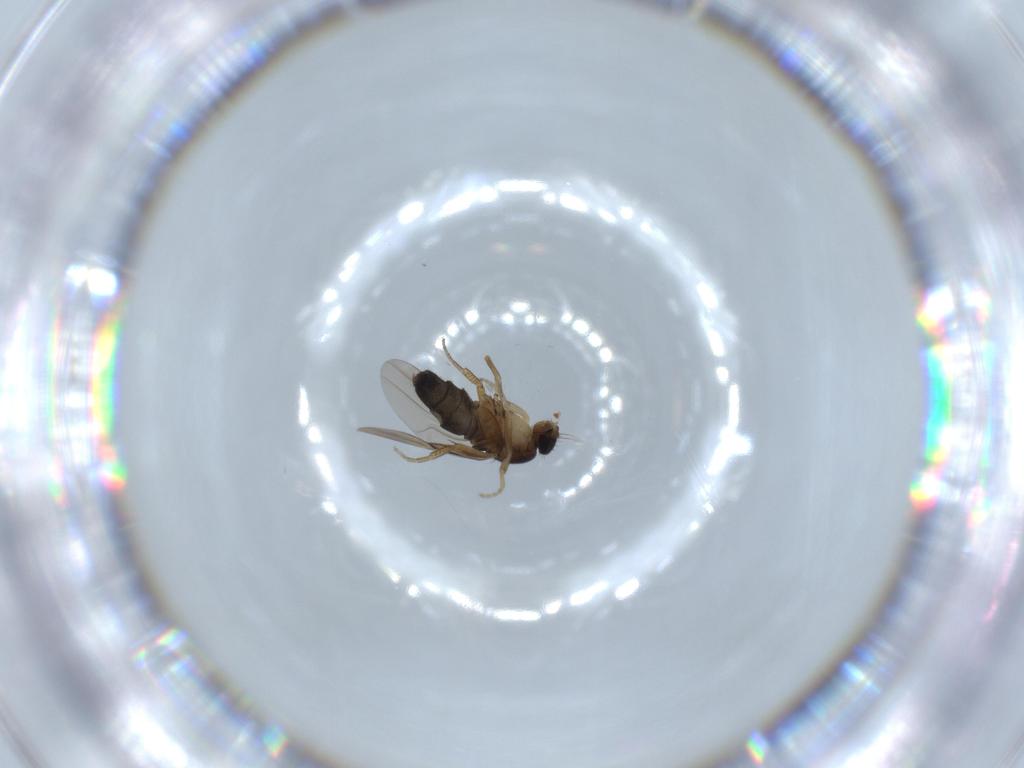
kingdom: Animalia
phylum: Arthropoda
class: Insecta
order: Diptera
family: Phoridae
